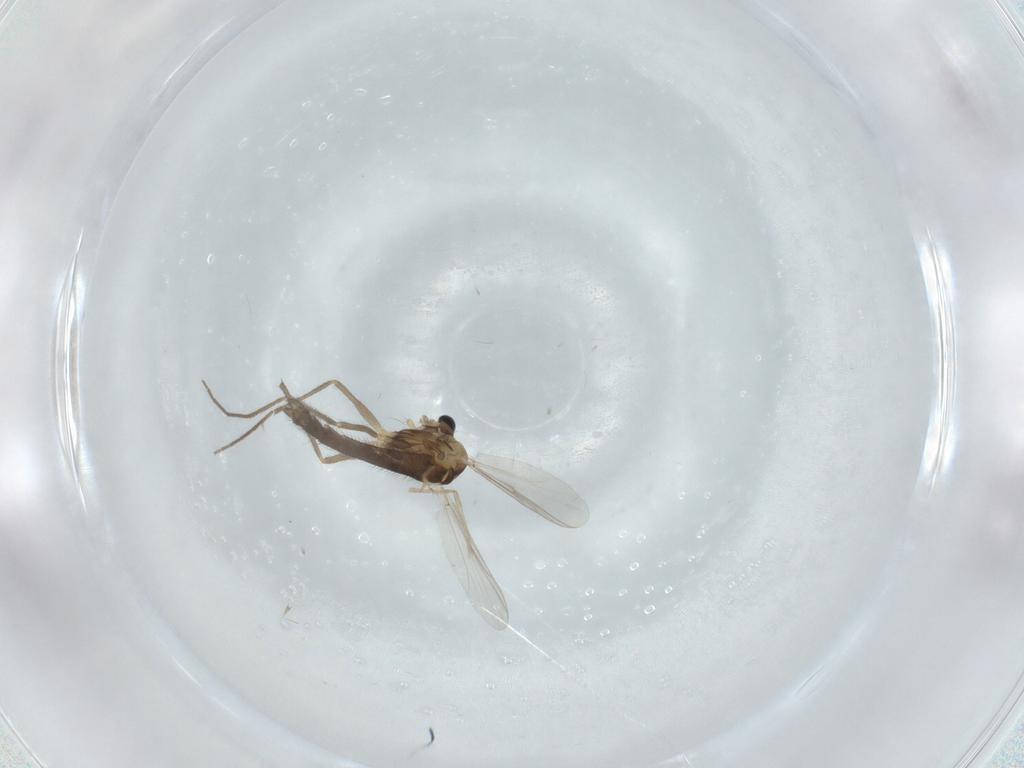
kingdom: Animalia
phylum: Arthropoda
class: Insecta
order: Diptera
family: Chironomidae
